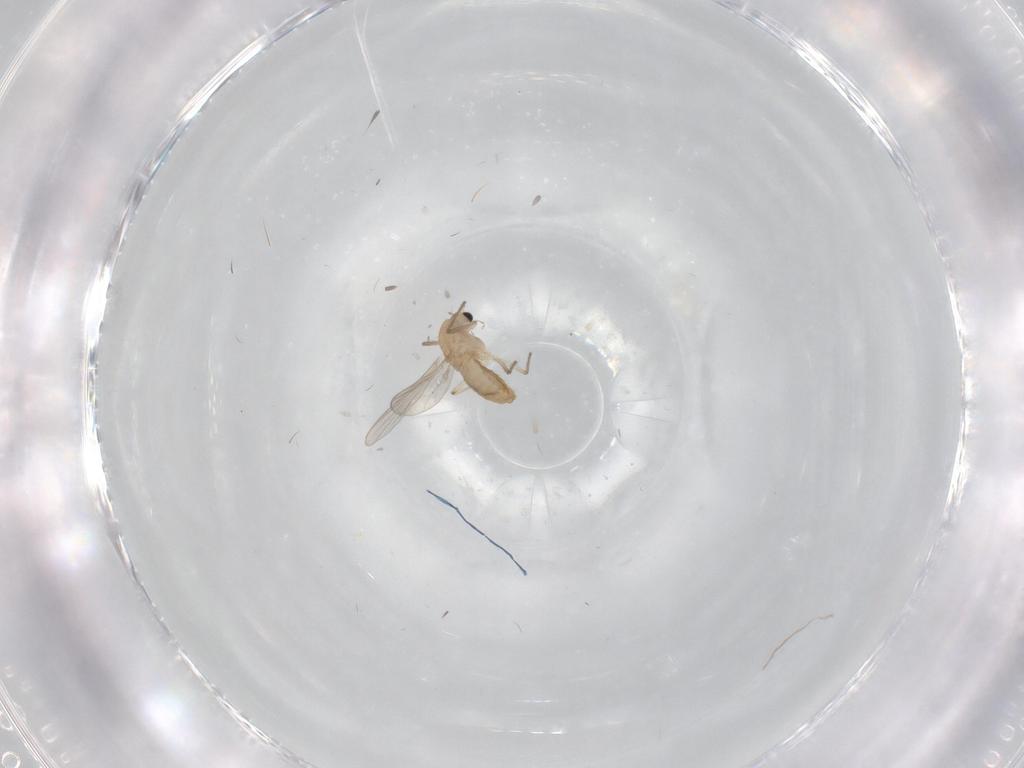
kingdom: Animalia
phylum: Arthropoda
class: Insecta
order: Diptera
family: Chironomidae
